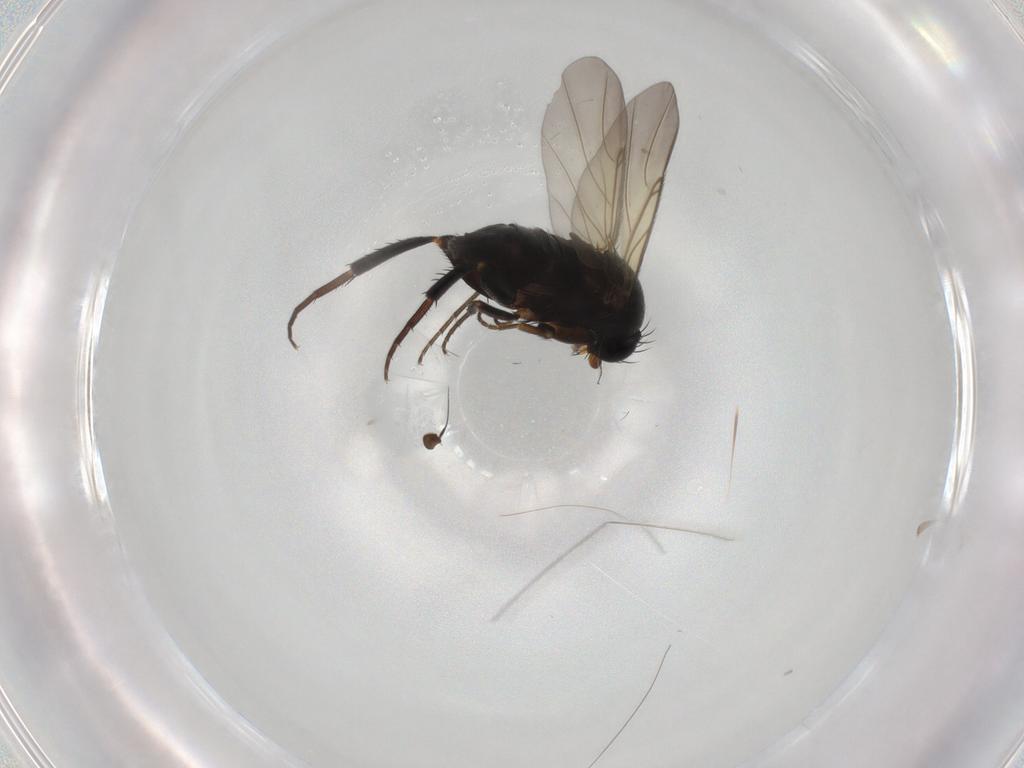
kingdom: Animalia
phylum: Arthropoda
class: Insecta
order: Diptera
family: Phoridae
